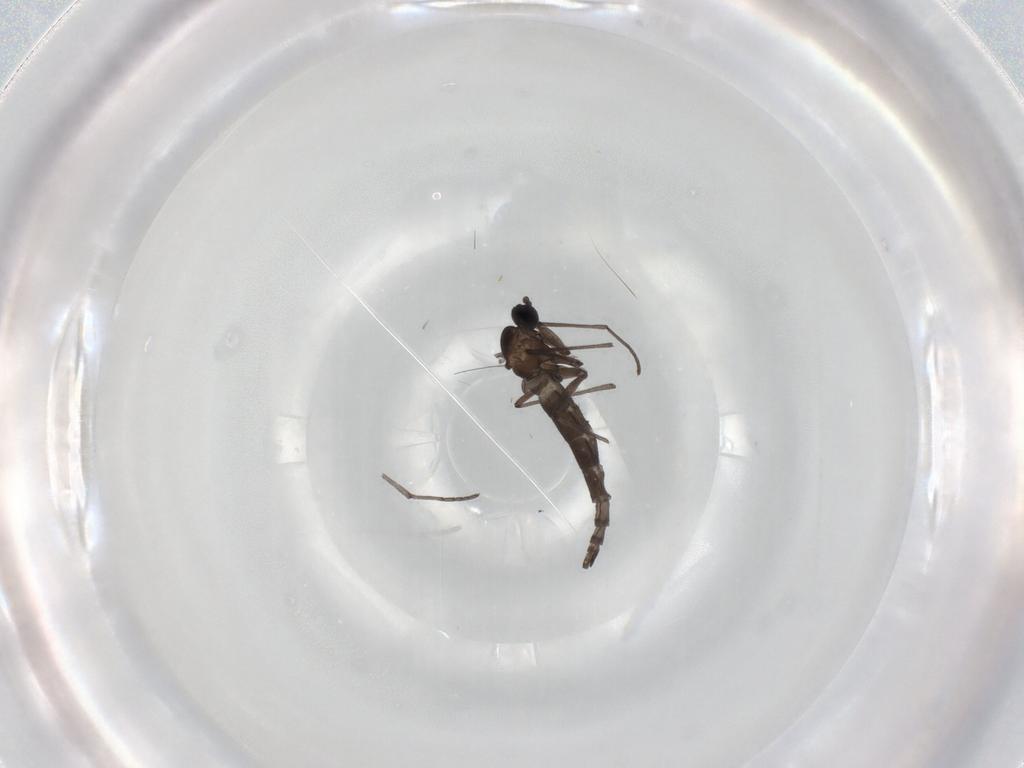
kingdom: Animalia
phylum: Arthropoda
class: Insecta
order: Diptera
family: Sciaridae
